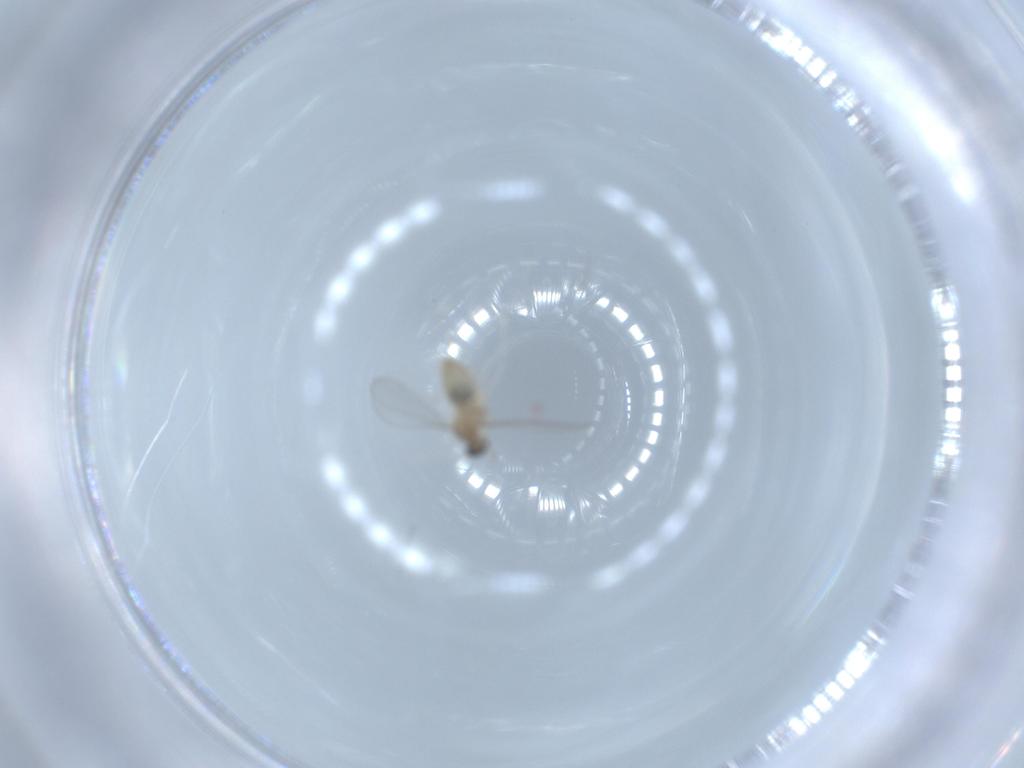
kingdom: Animalia
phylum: Arthropoda
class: Insecta
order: Diptera
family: Cecidomyiidae
